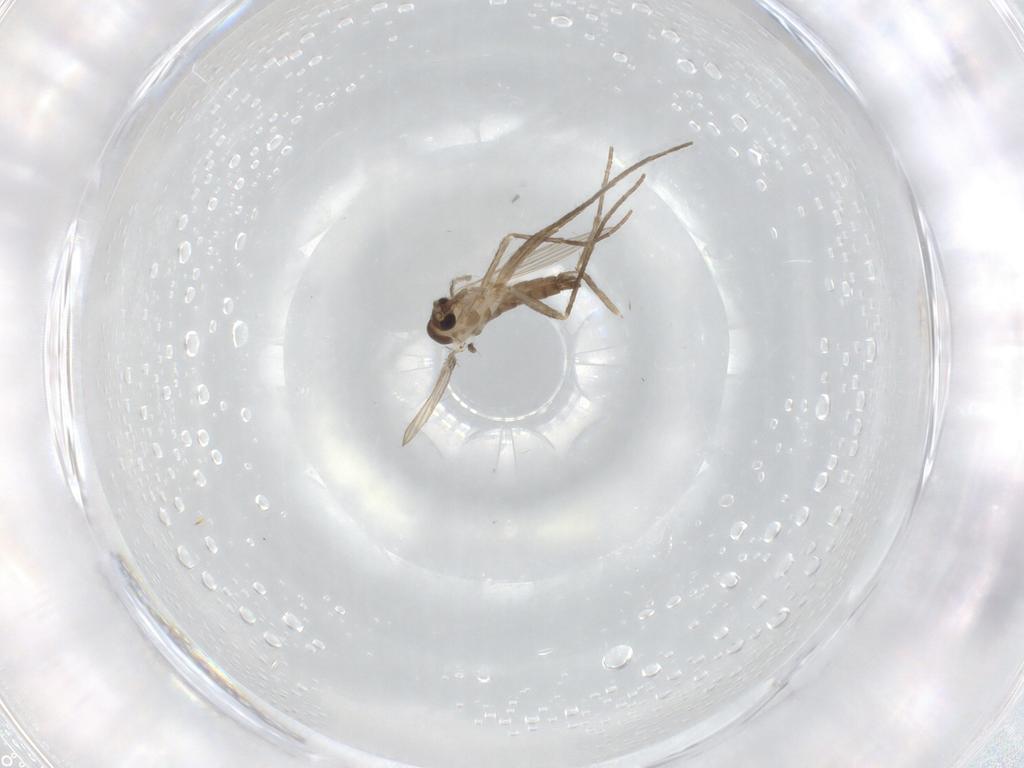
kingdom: Animalia
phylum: Arthropoda
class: Insecta
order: Diptera
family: Psychodidae
